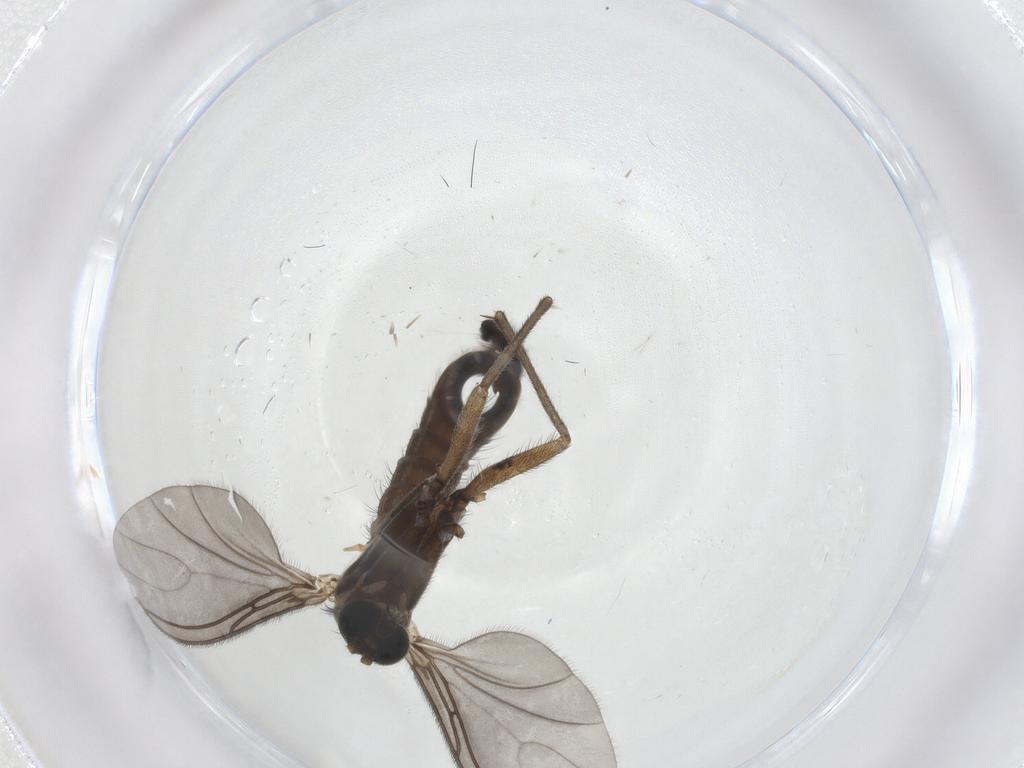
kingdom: Animalia
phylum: Arthropoda
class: Insecta
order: Diptera
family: Sciaridae
